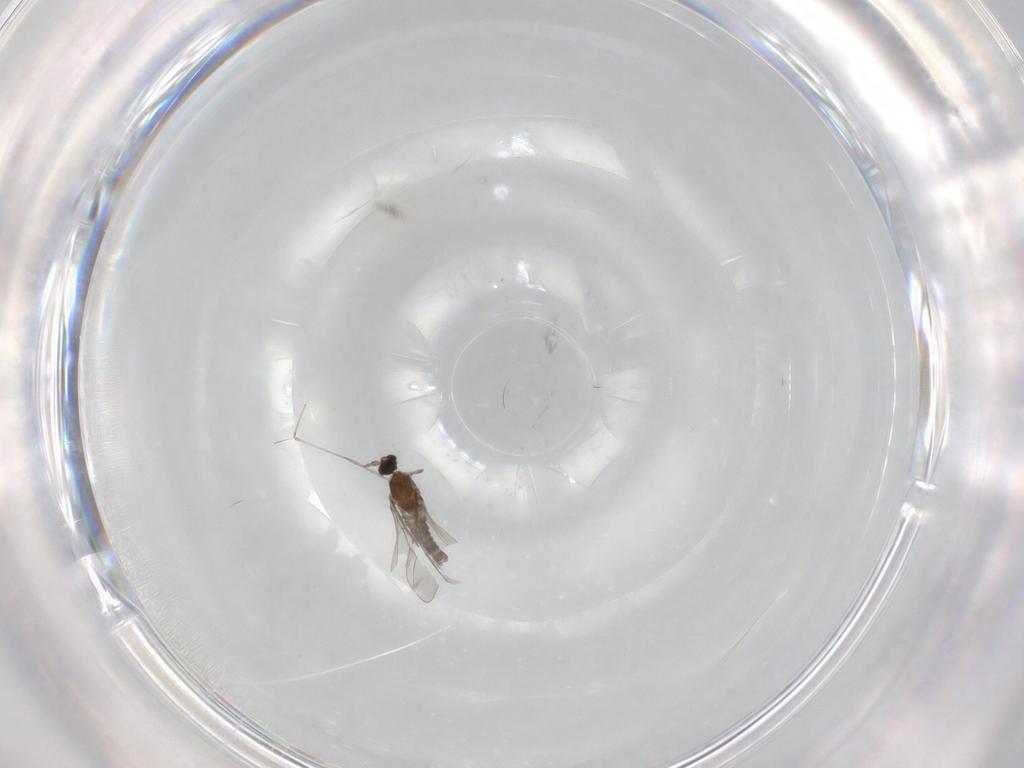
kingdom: Animalia
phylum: Arthropoda
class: Insecta
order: Diptera
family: Cecidomyiidae
